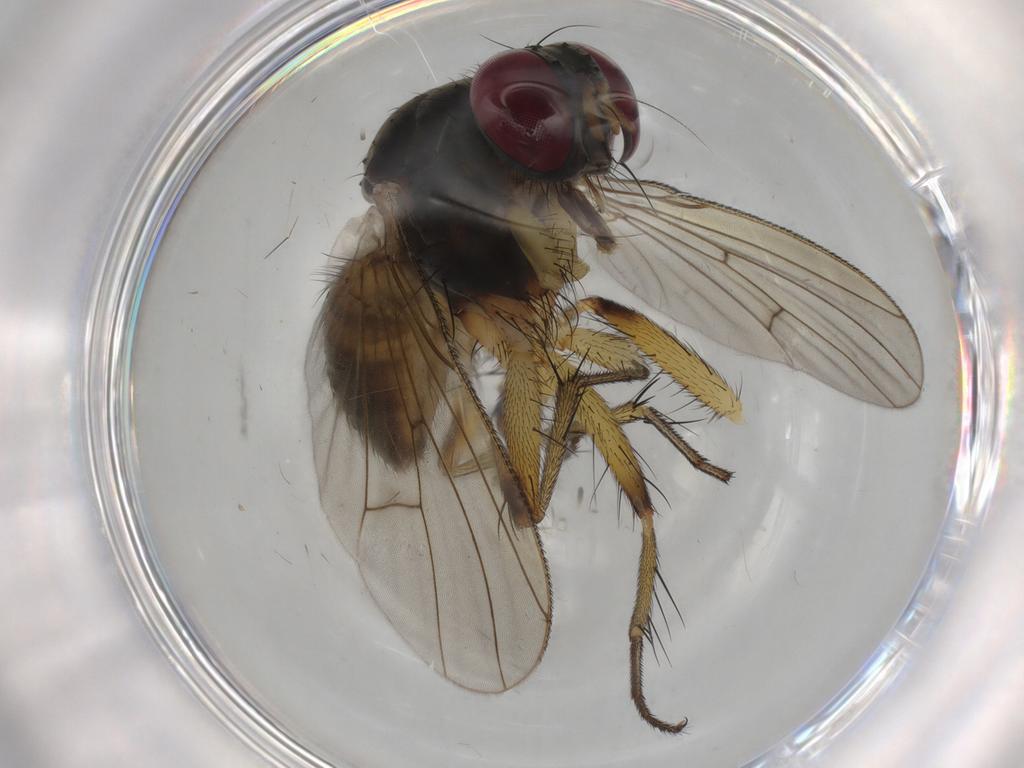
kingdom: Animalia
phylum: Arthropoda
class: Insecta
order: Diptera
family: Muscidae
